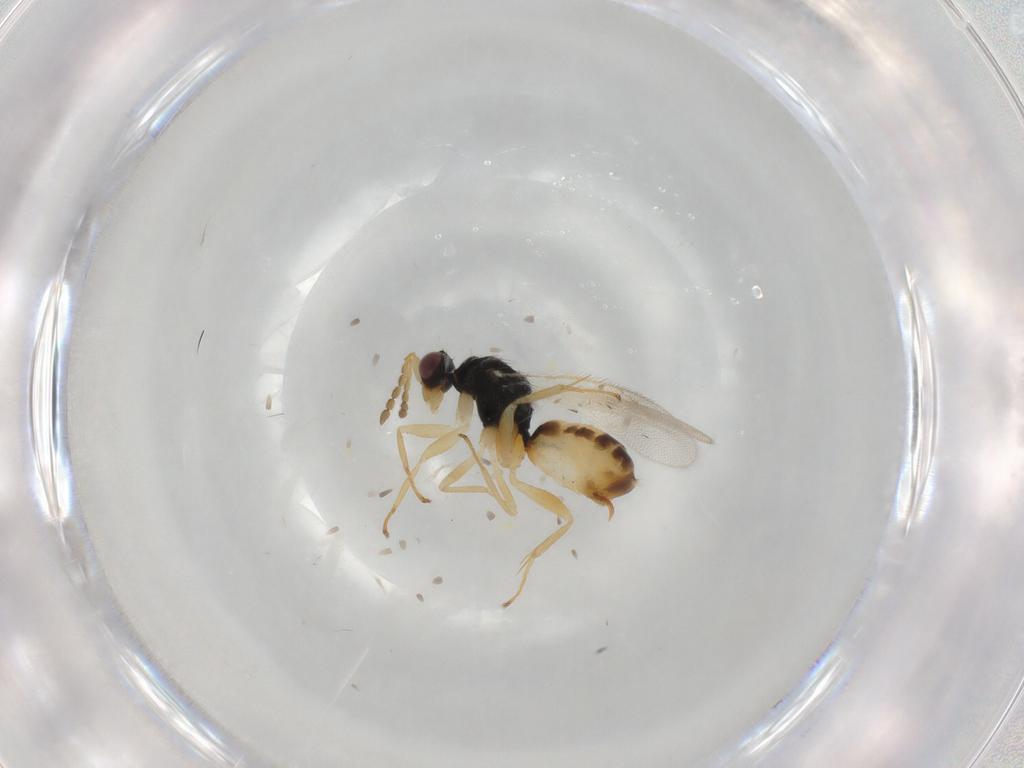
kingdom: Animalia
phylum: Arthropoda
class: Insecta
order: Hymenoptera
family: Eulophidae
